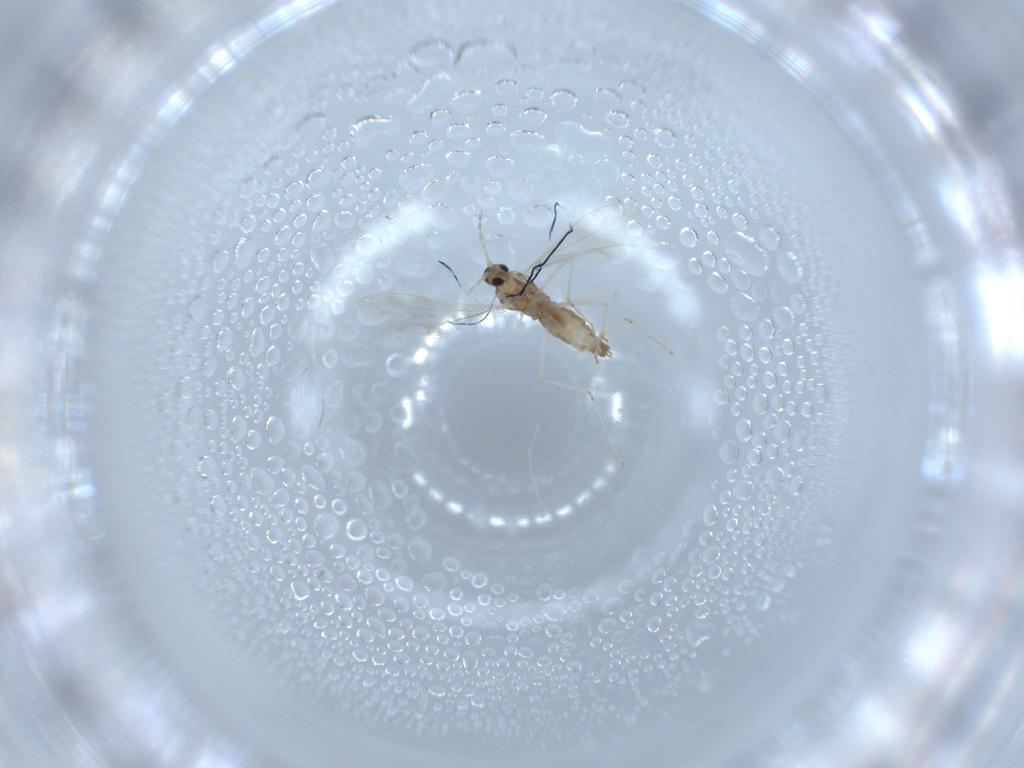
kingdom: Animalia
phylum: Arthropoda
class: Insecta
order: Diptera
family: Cecidomyiidae
